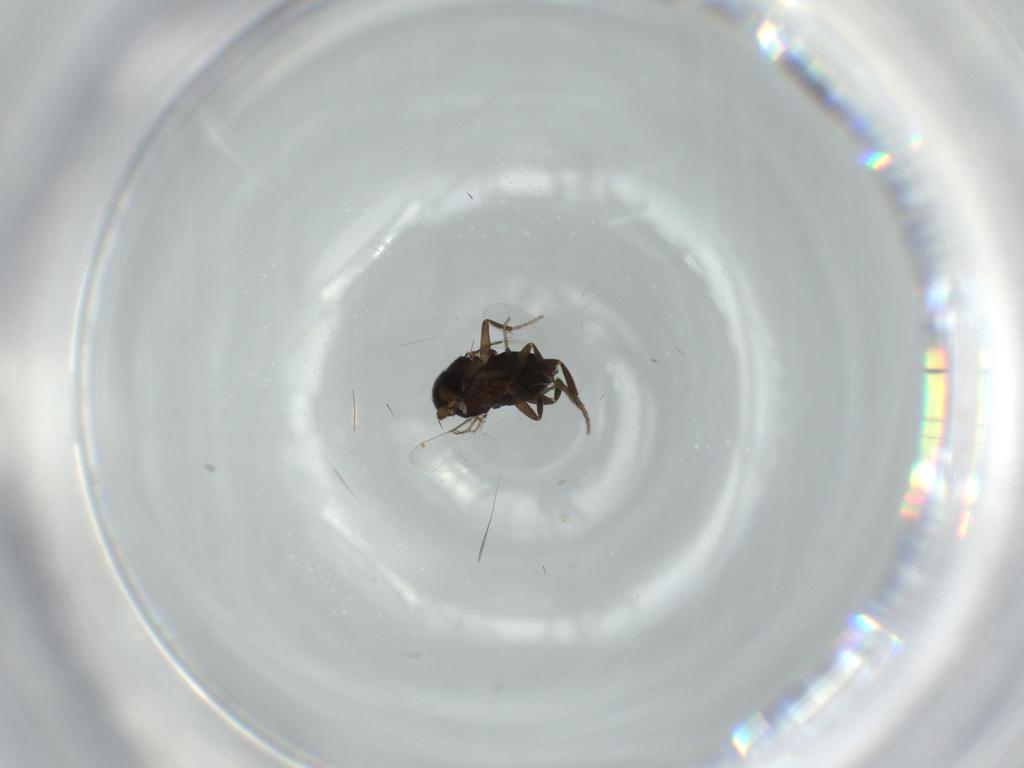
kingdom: Animalia
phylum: Arthropoda
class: Insecta
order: Diptera
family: Phoridae
